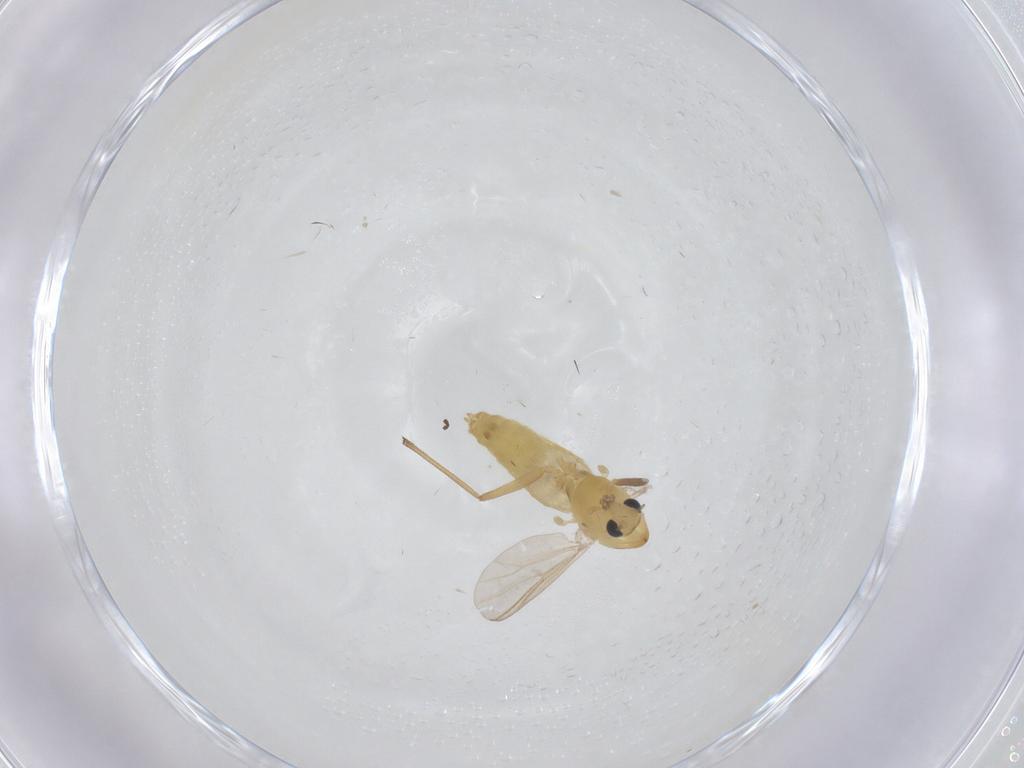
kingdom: Animalia
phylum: Arthropoda
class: Insecta
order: Diptera
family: Chironomidae
